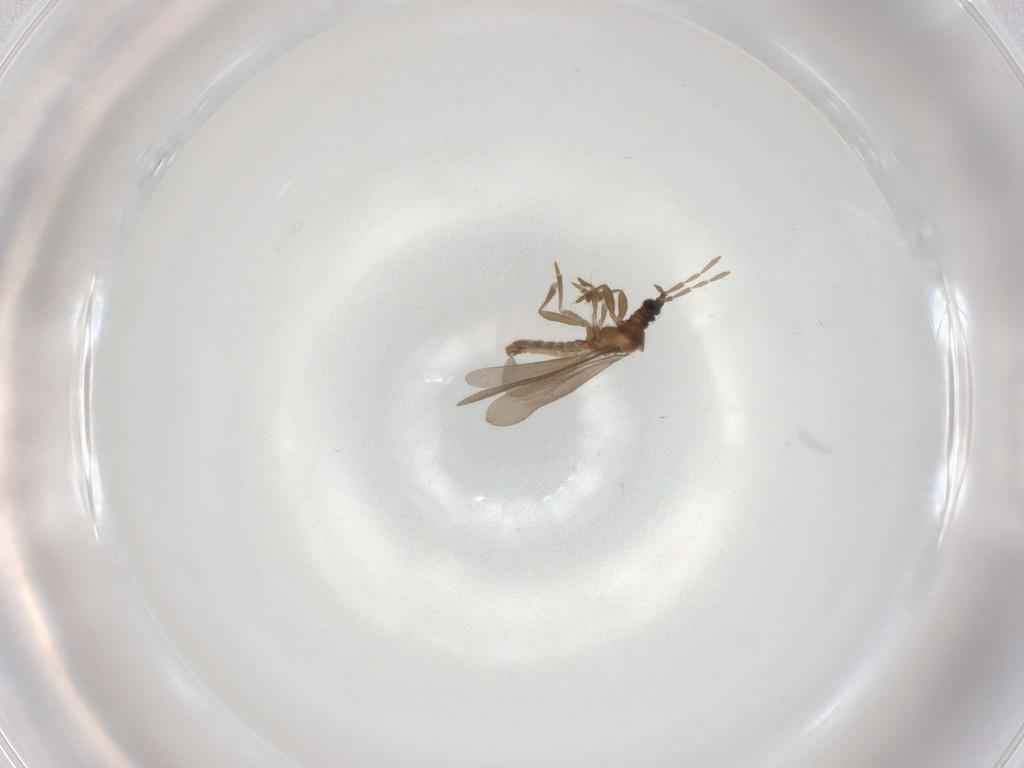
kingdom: Animalia
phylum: Arthropoda
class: Insecta
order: Hemiptera
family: Enicocephalidae
